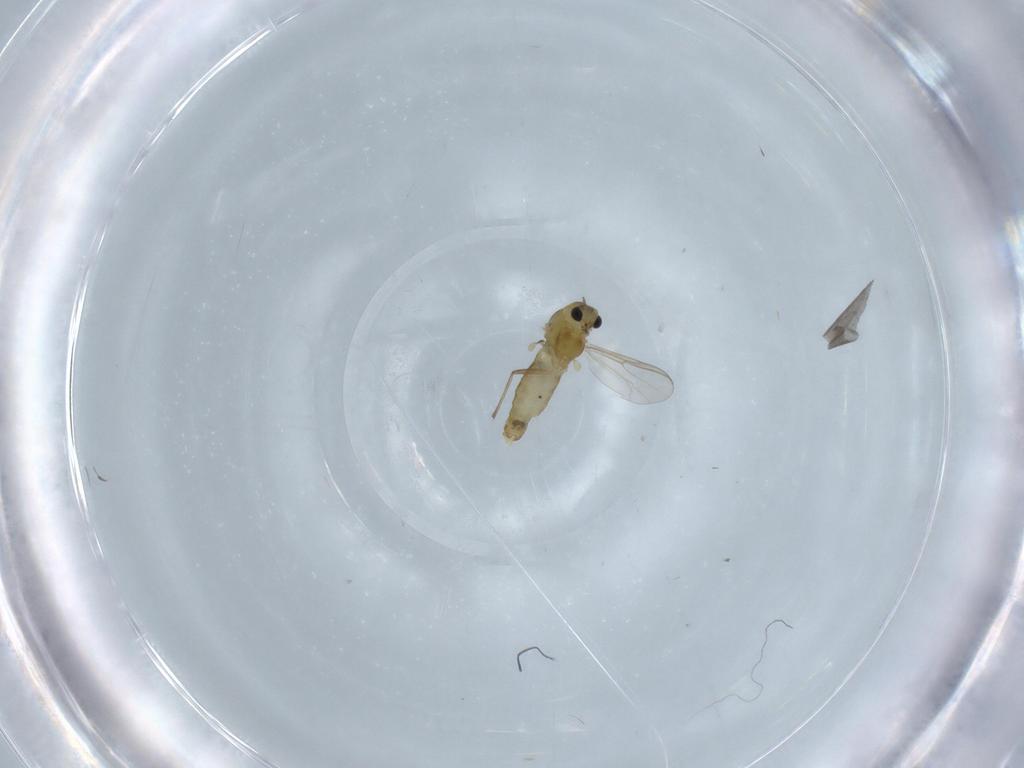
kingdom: Animalia
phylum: Arthropoda
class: Insecta
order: Diptera
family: Chironomidae
